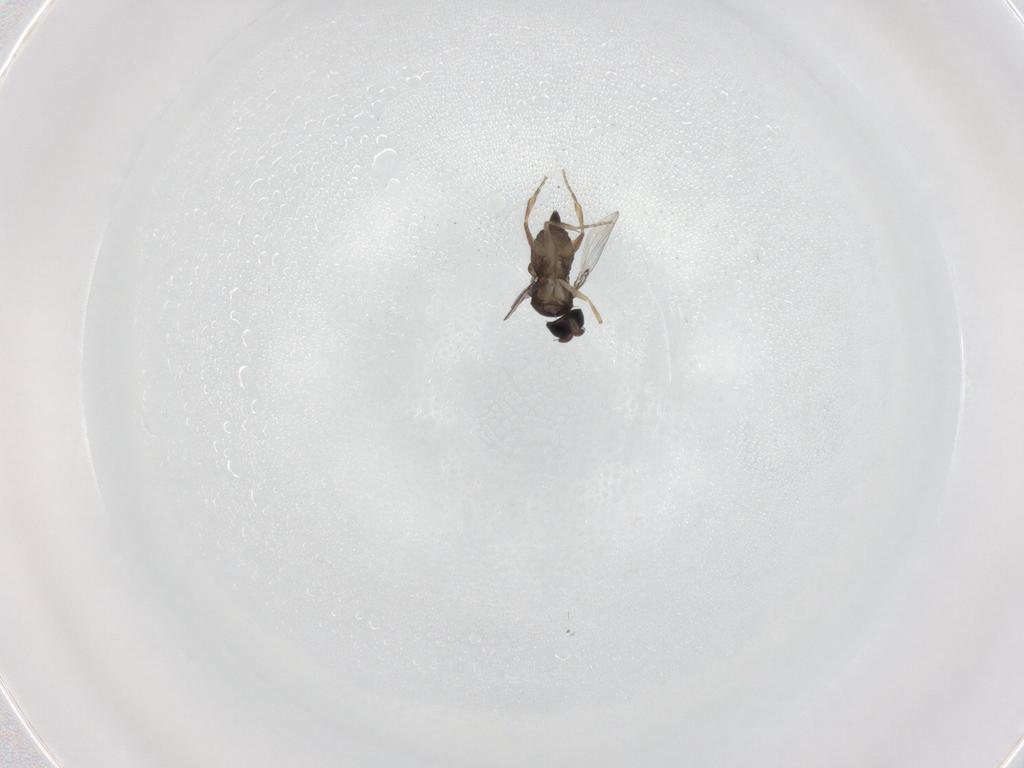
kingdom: Animalia
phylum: Arthropoda
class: Insecta
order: Diptera
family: Phoridae
